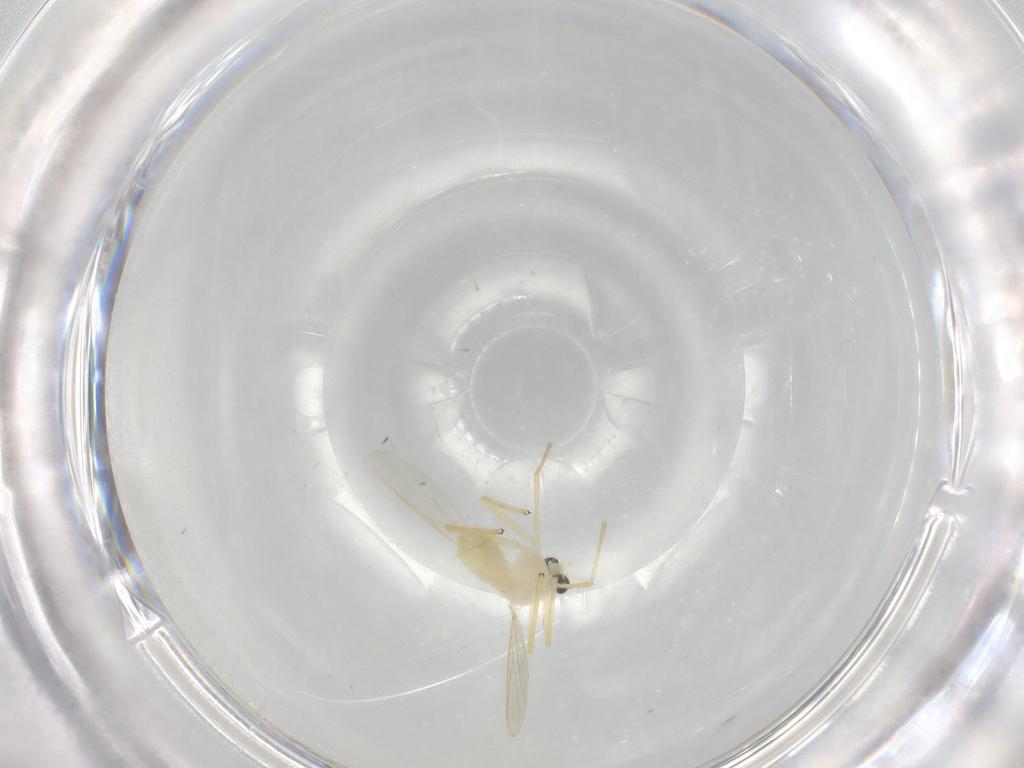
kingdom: Animalia
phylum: Arthropoda
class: Insecta
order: Diptera
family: Chironomidae
